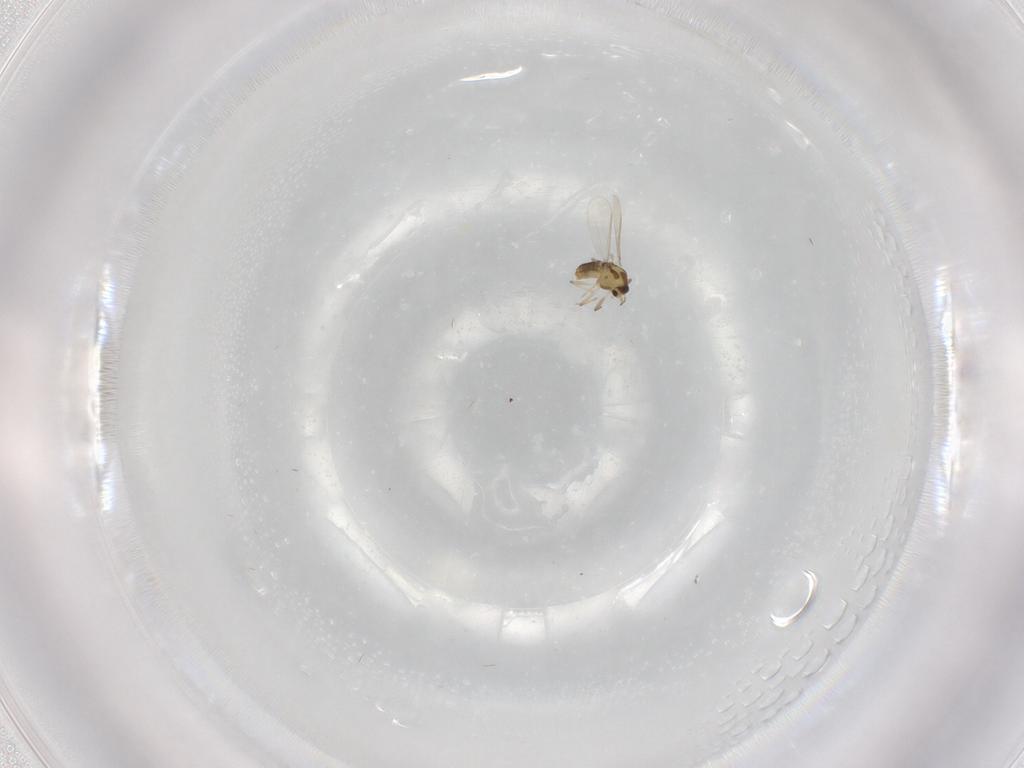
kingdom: Animalia
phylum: Arthropoda
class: Insecta
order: Diptera
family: Chironomidae
